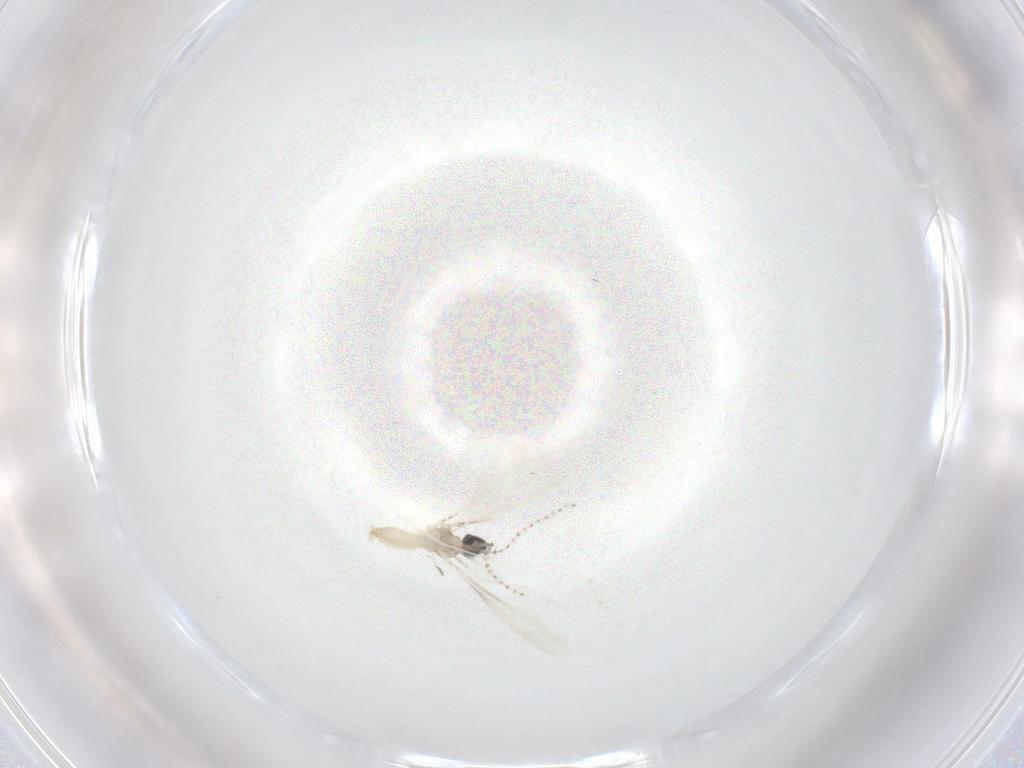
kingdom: Animalia
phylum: Arthropoda
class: Insecta
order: Diptera
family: Cecidomyiidae
